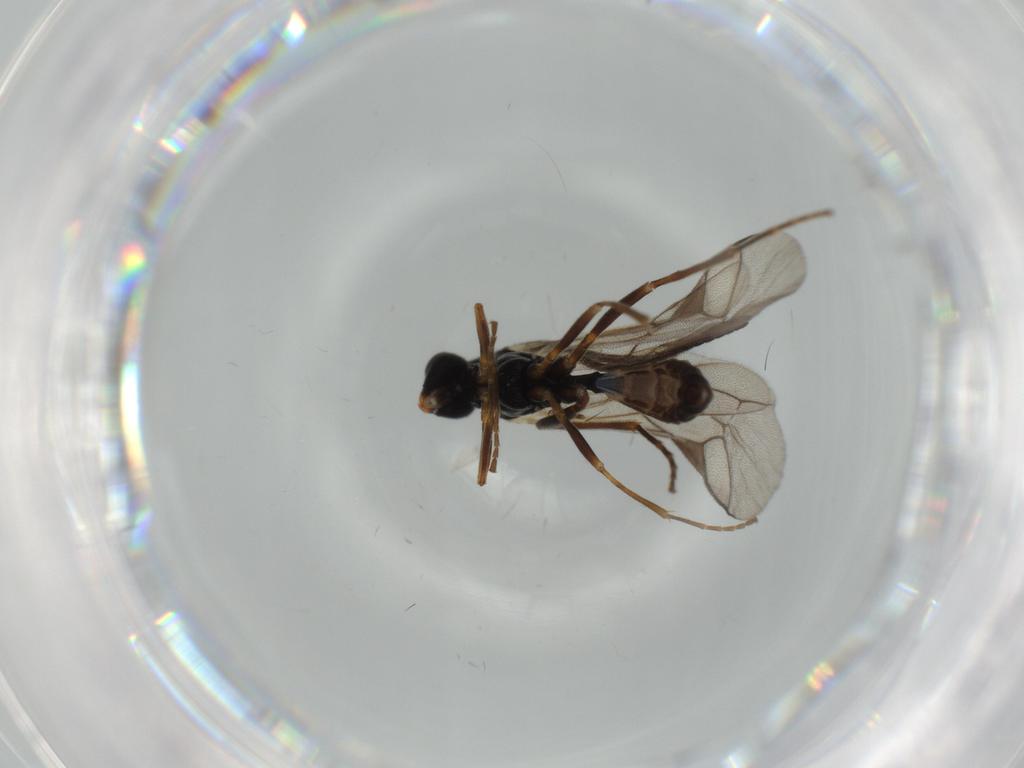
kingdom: Animalia
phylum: Arthropoda
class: Insecta
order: Hymenoptera
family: Ichneumonidae
